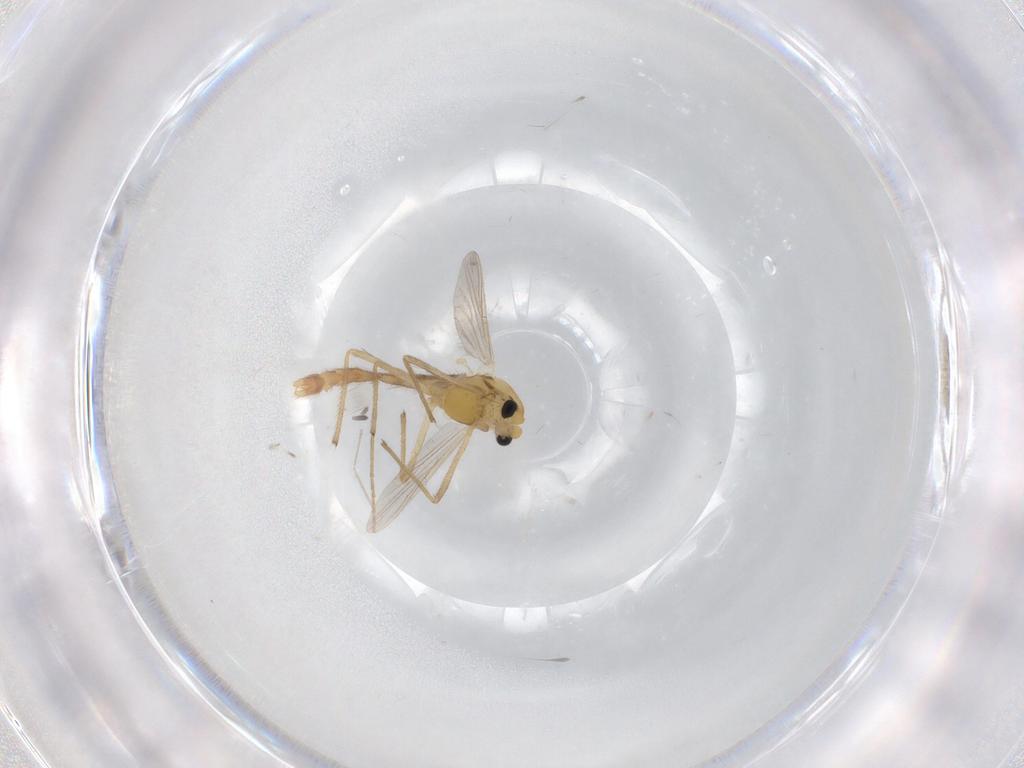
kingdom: Animalia
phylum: Arthropoda
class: Insecta
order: Diptera
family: Cecidomyiidae
